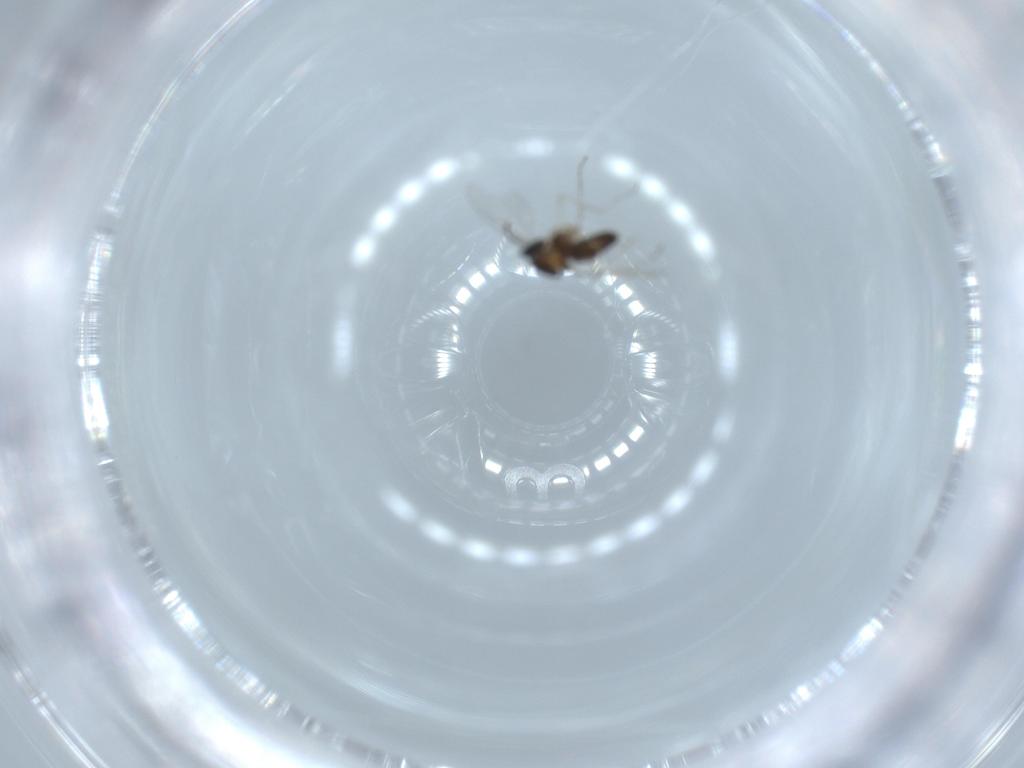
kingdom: Animalia
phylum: Arthropoda
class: Insecta
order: Diptera
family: Cecidomyiidae
